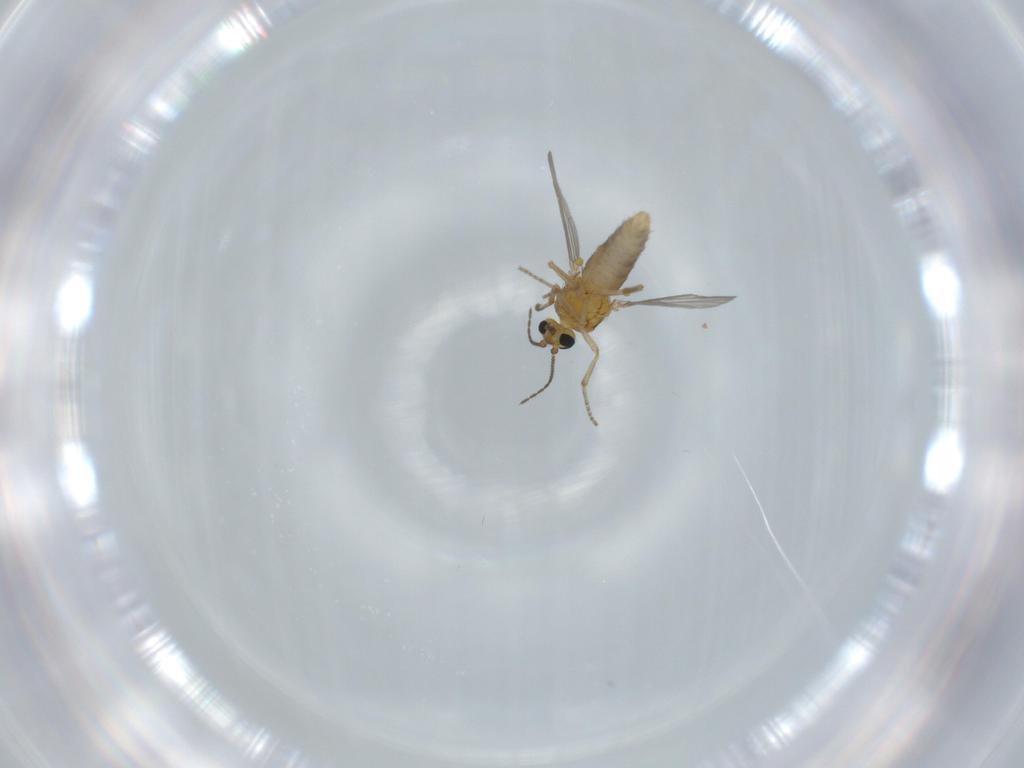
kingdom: Animalia
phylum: Arthropoda
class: Insecta
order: Diptera
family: Ceratopogonidae
